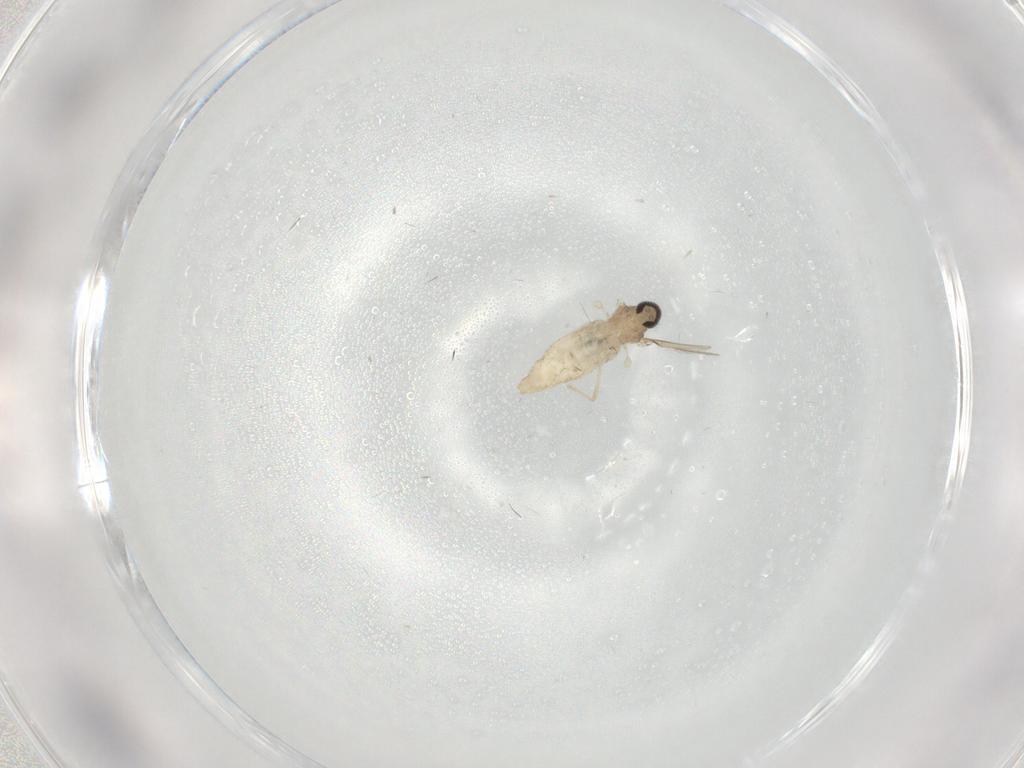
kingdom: Animalia
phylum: Arthropoda
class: Insecta
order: Diptera
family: Cecidomyiidae
